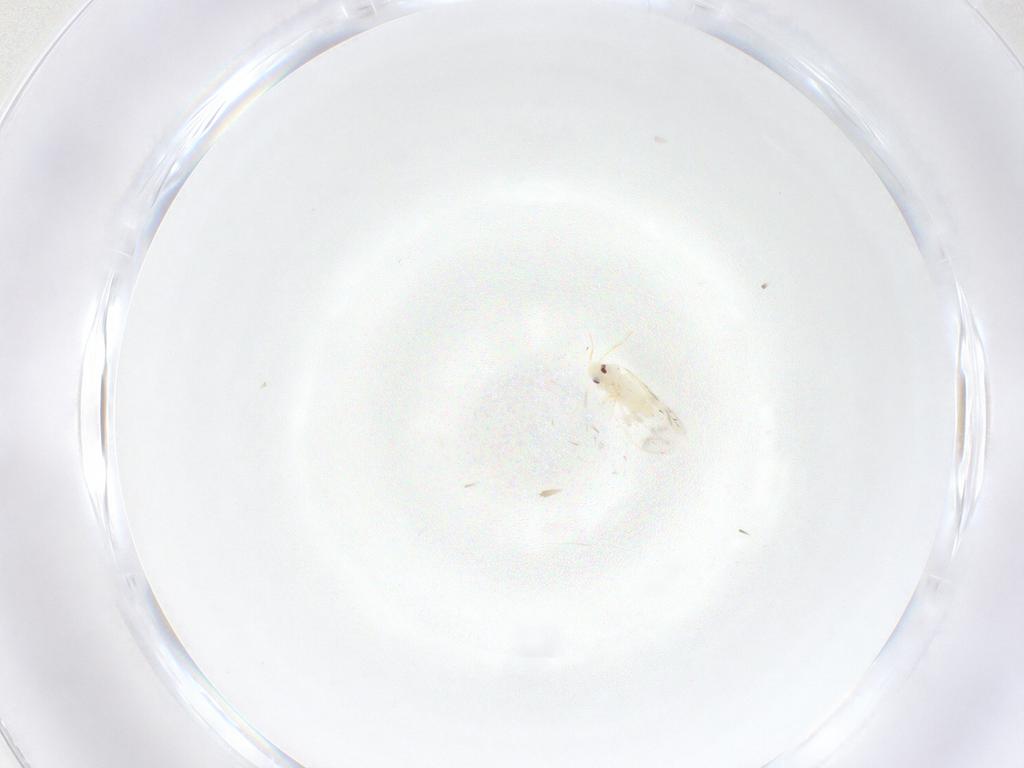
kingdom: Animalia
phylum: Arthropoda
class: Insecta
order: Hemiptera
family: Aleyrodidae
